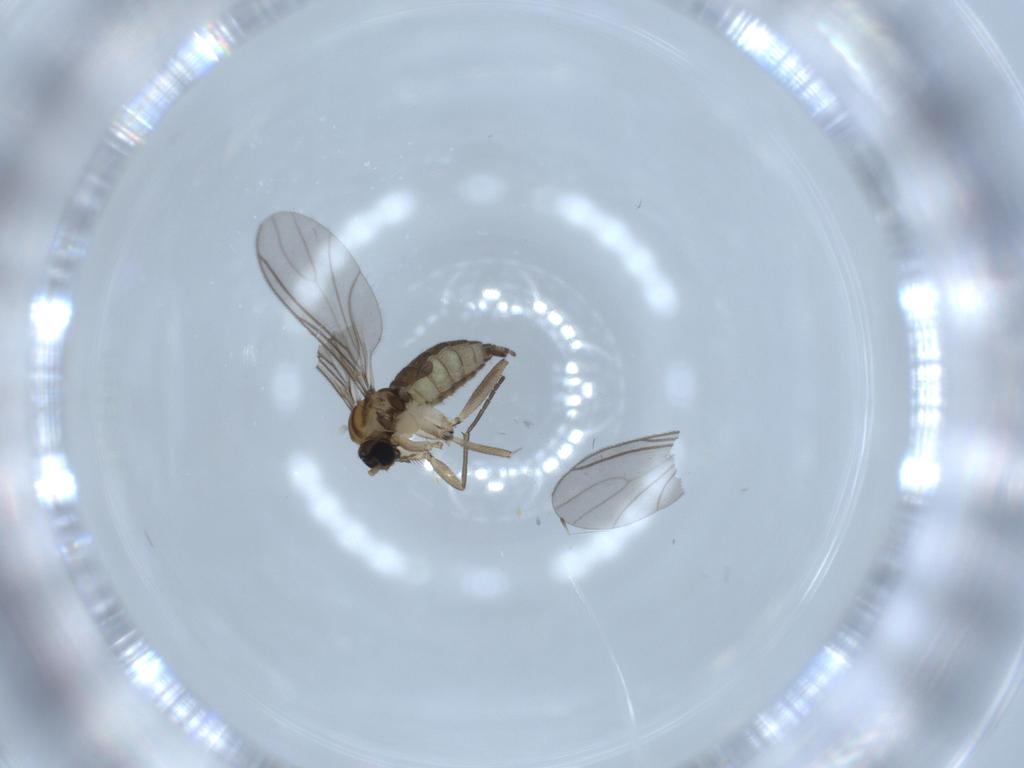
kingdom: Animalia
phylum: Arthropoda
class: Insecta
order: Diptera
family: Sciaridae
